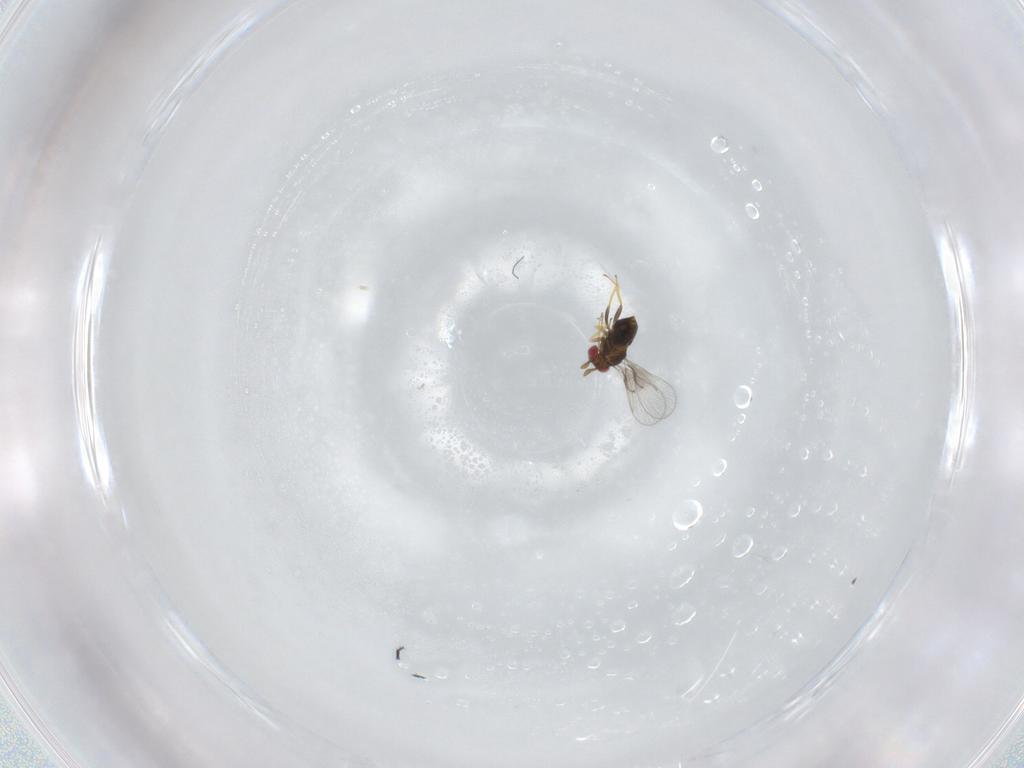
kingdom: Animalia
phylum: Arthropoda
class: Insecta
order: Hymenoptera
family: Trichogrammatidae
